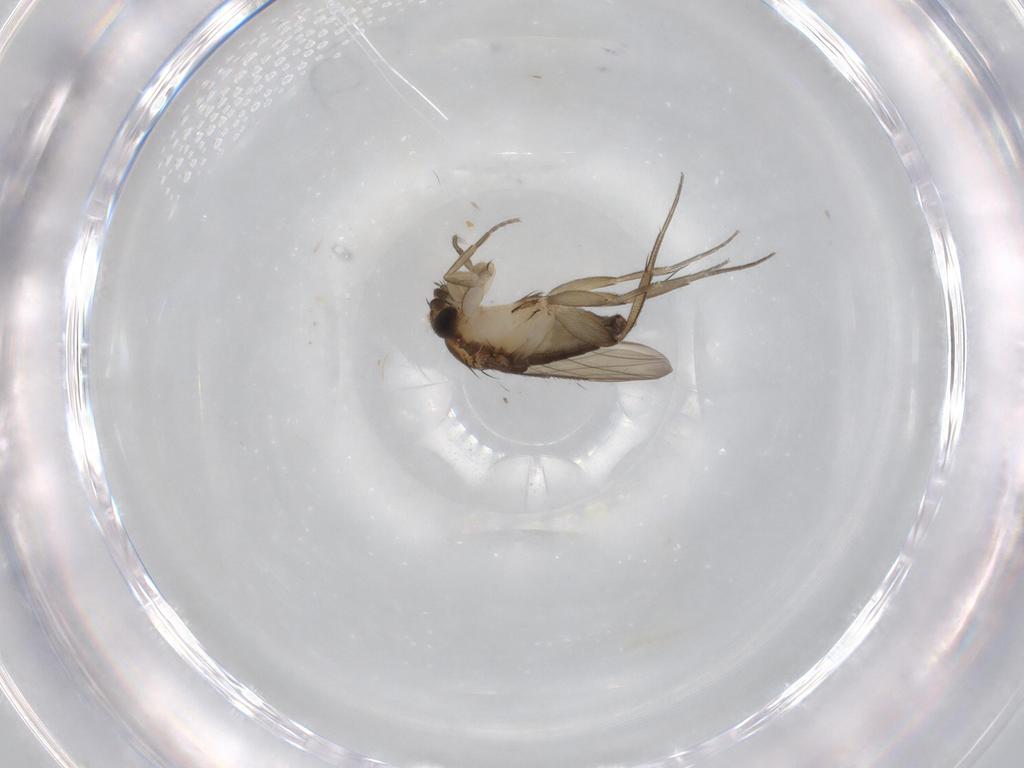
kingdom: Animalia
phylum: Arthropoda
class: Insecta
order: Diptera
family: Phoridae
